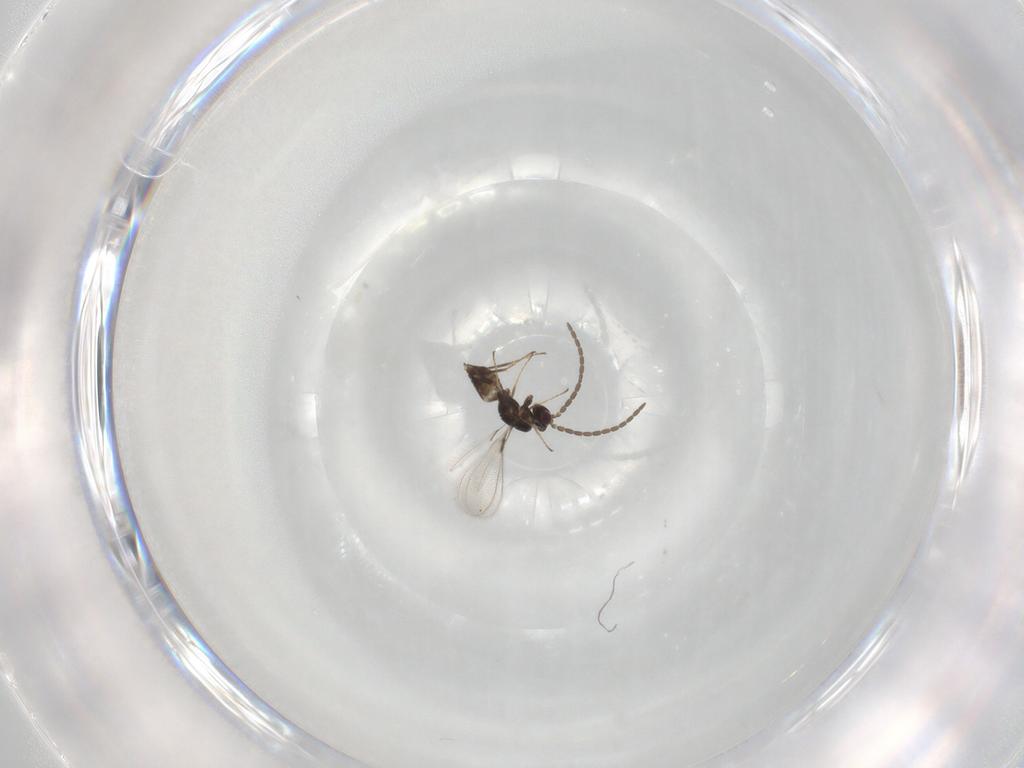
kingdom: Animalia
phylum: Arthropoda
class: Insecta
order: Hymenoptera
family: Mymaridae
